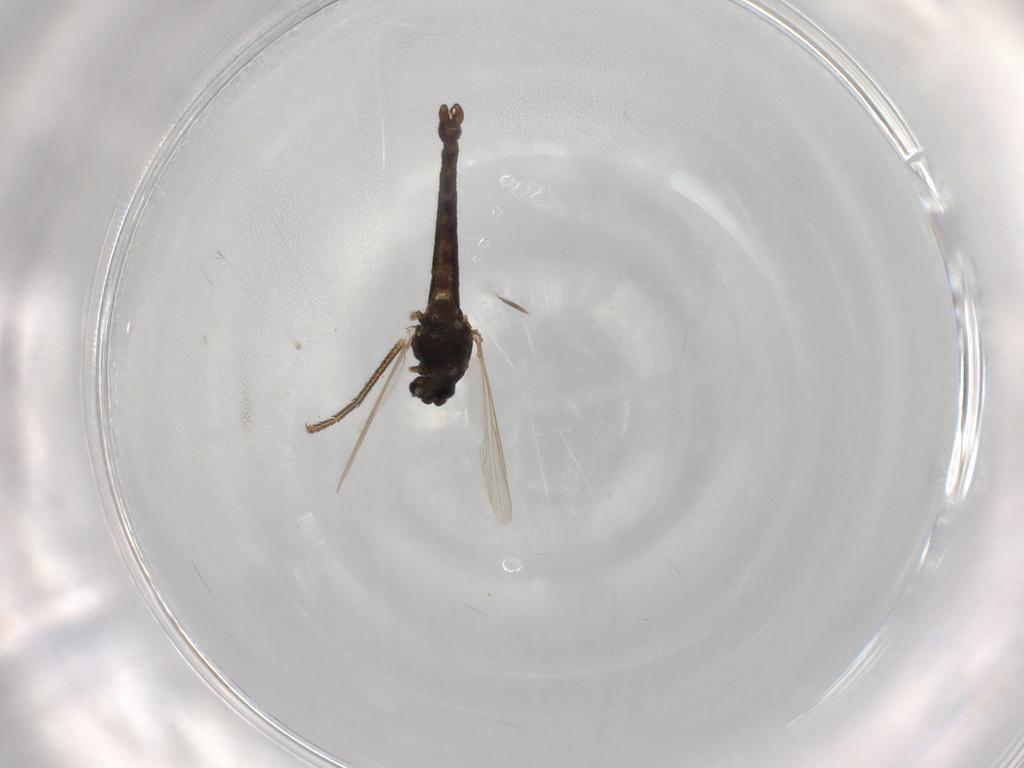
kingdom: Animalia
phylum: Arthropoda
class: Insecta
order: Diptera
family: Chironomidae
